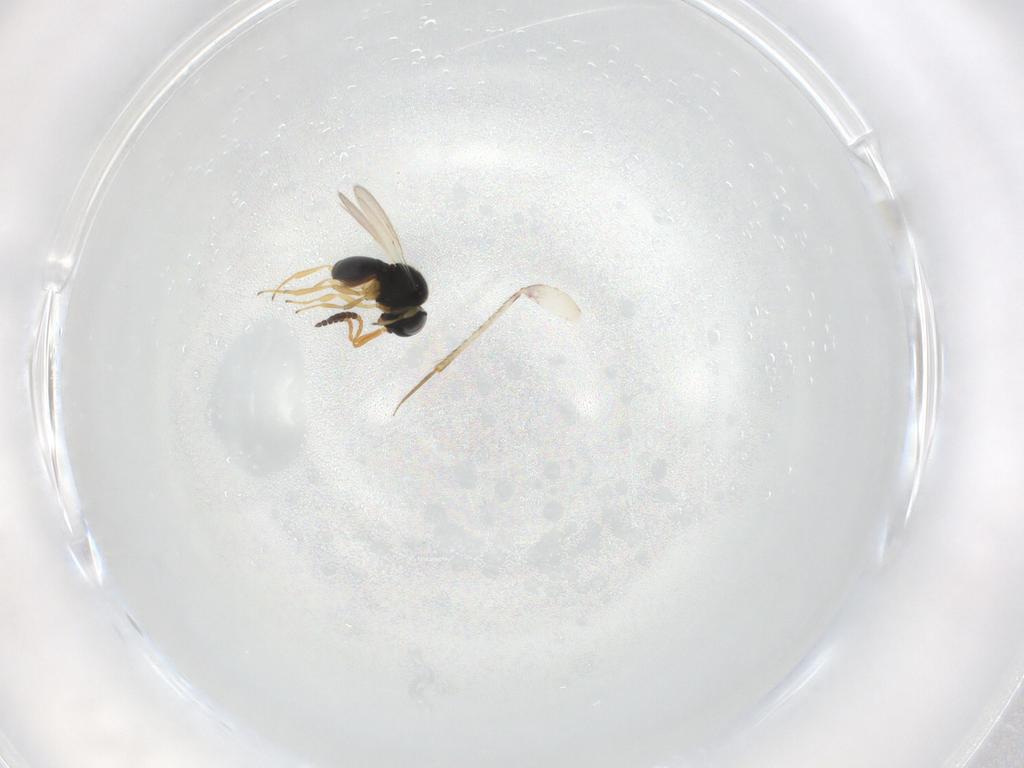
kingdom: Animalia
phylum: Arthropoda
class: Insecta
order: Hymenoptera
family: Scelionidae
